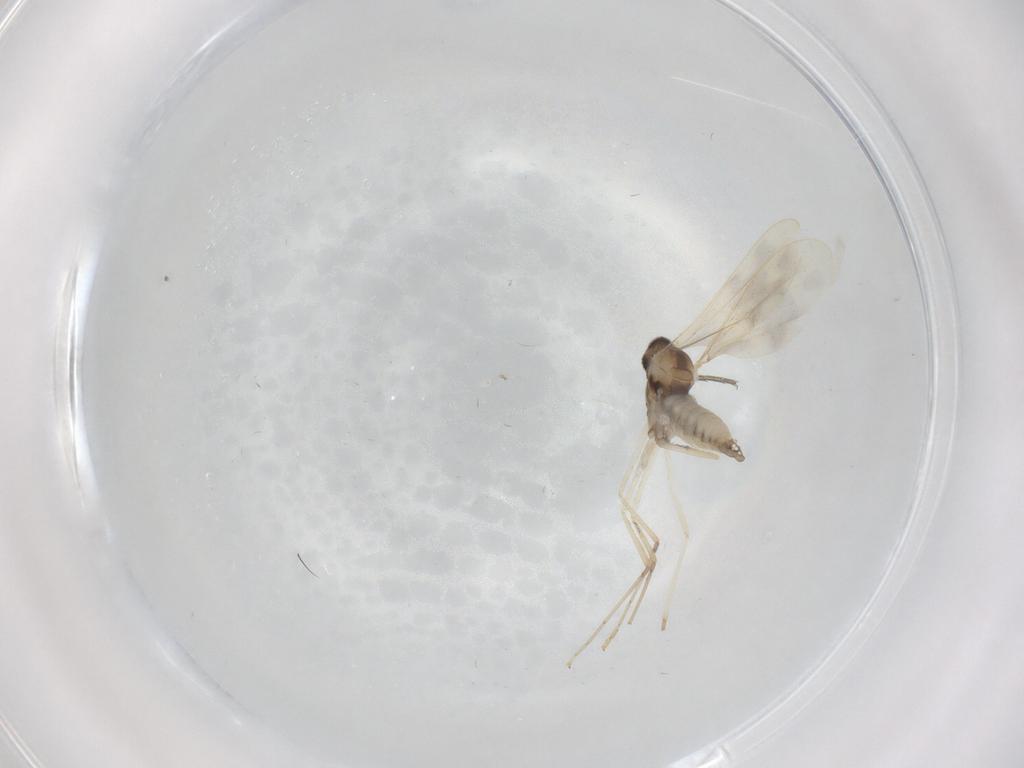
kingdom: Animalia
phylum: Arthropoda
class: Insecta
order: Diptera
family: Cecidomyiidae
